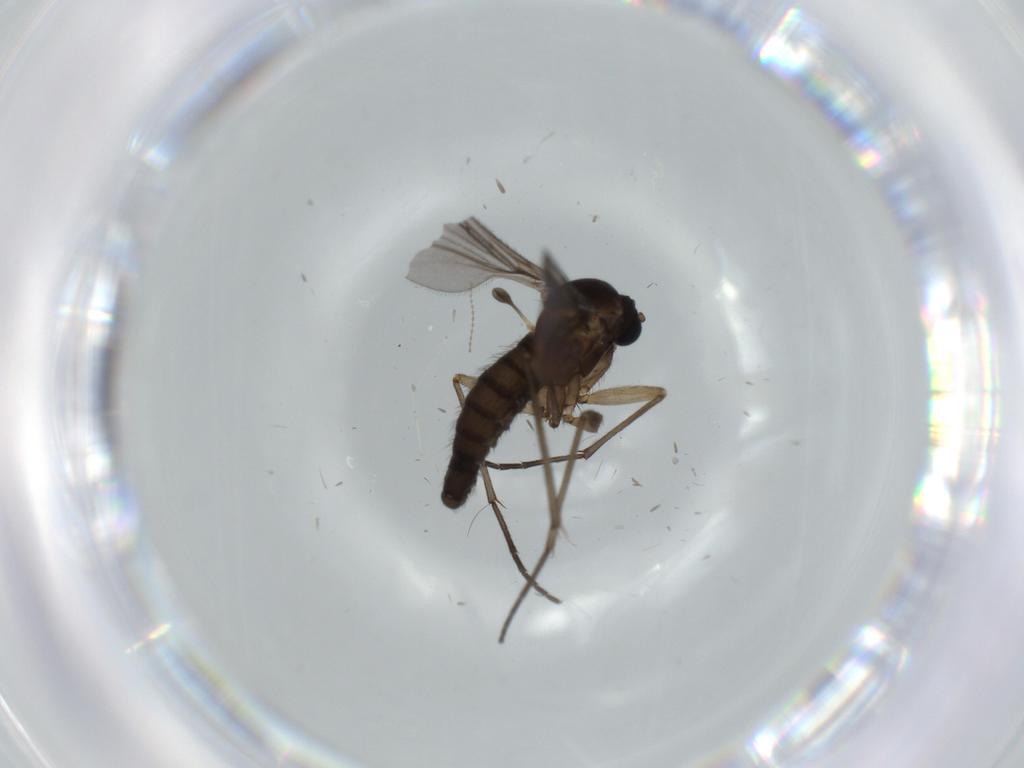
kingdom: Animalia
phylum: Arthropoda
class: Insecta
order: Diptera
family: Sciaridae
